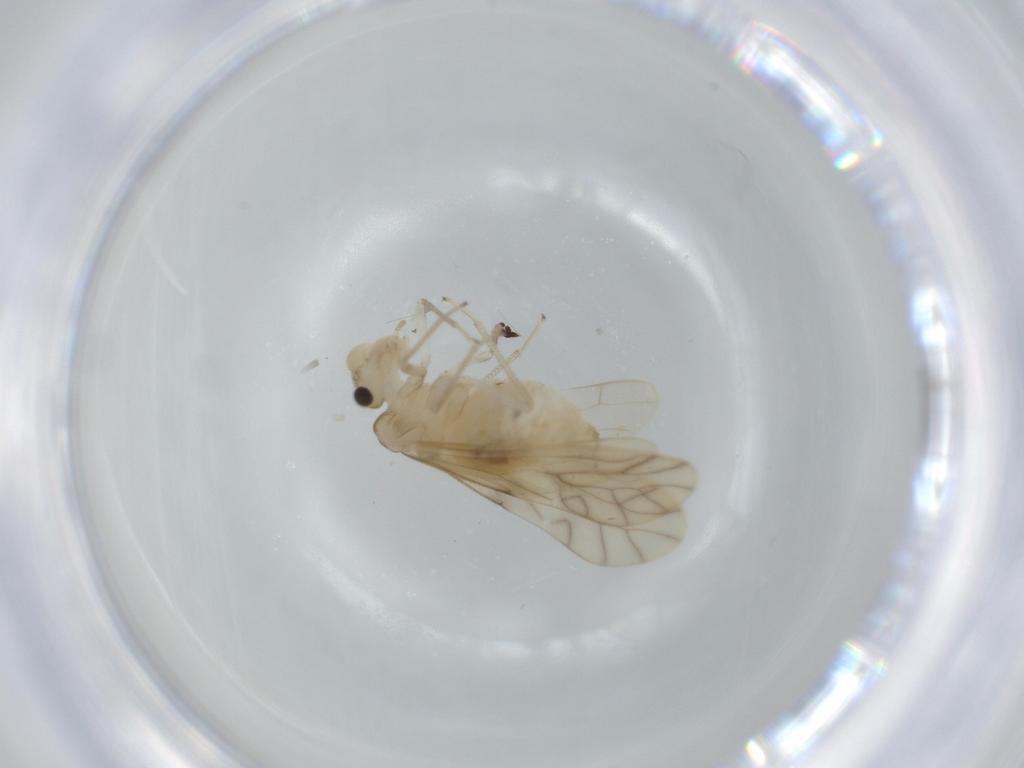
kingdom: Animalia
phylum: Arthropoda
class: Insecta
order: Psocodea
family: Caeciliusidae
